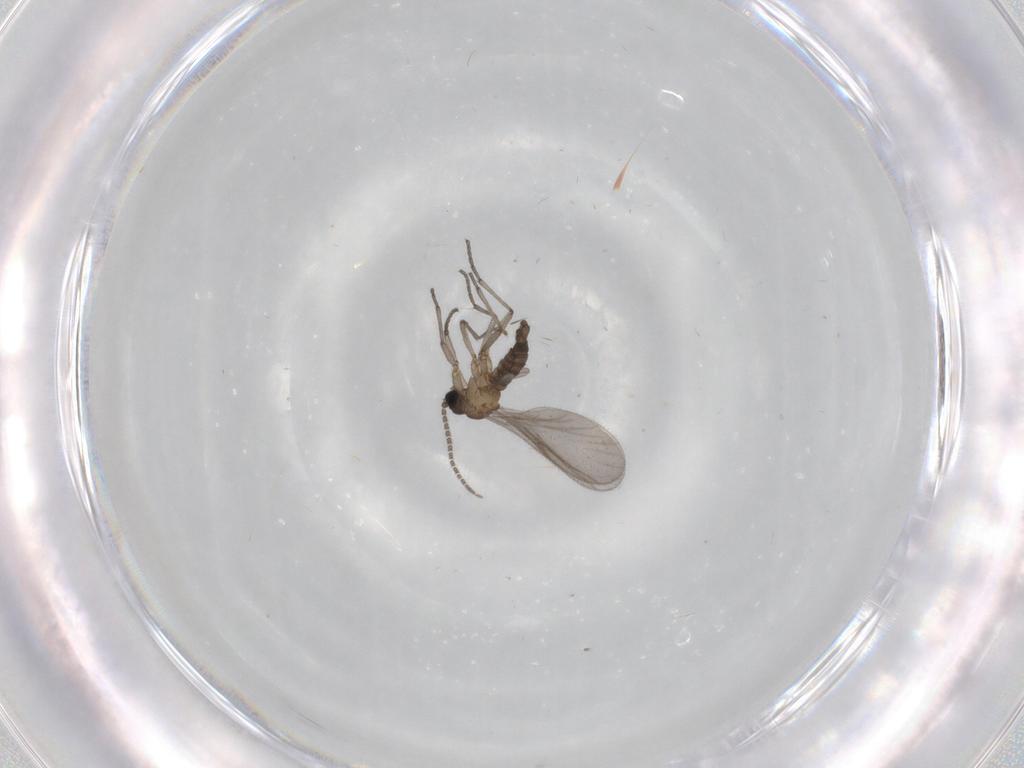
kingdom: Animalia
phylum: Arthropoda
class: Insecta
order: Diptera
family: Sciaridae
